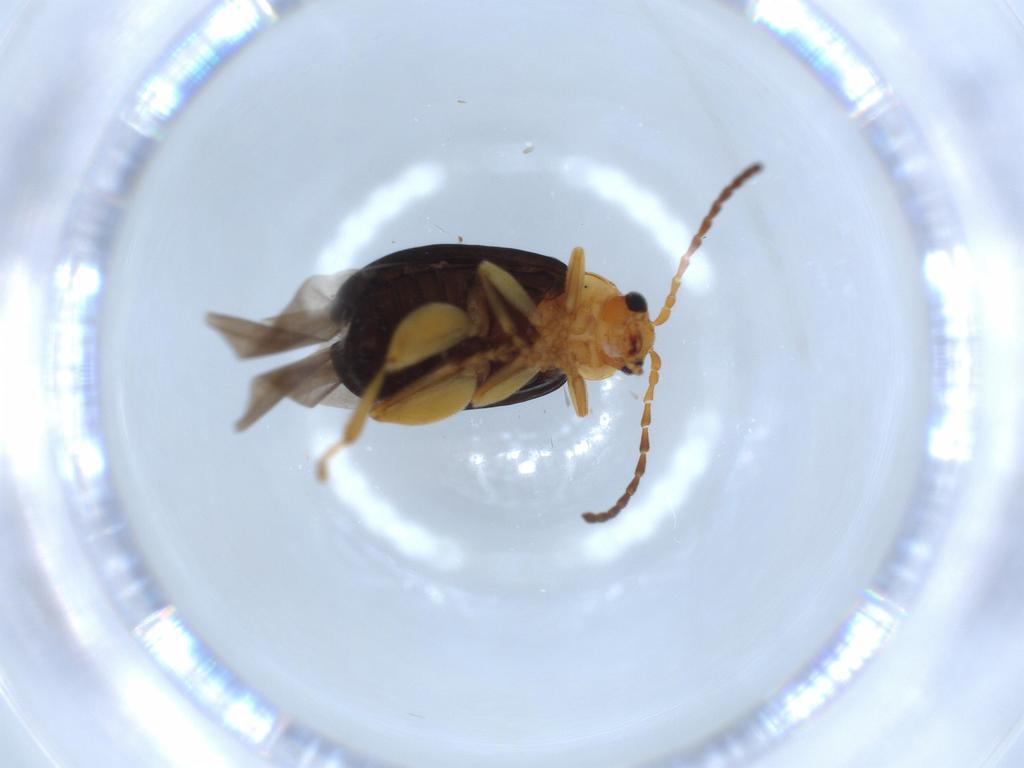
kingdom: Animalia
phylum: Arthropoda
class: Insecta
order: Coleoptera
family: Chrysomelidae
